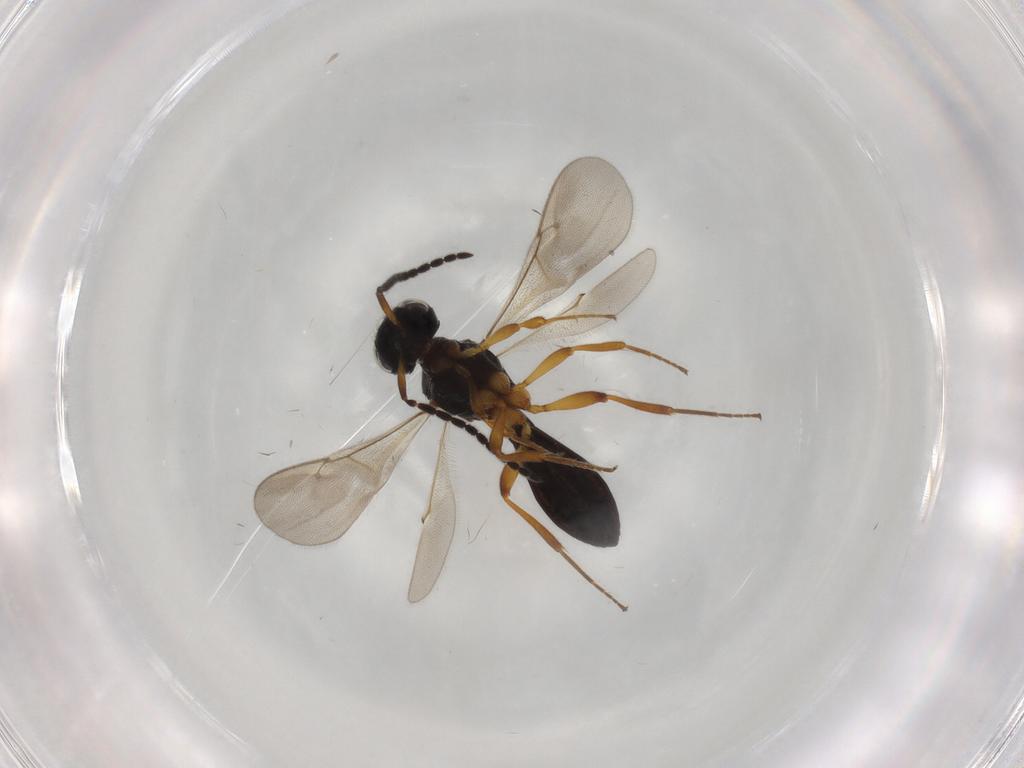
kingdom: Animalia
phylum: Arthropoda
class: Insecta
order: Hymenoptera
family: Scelionidae
